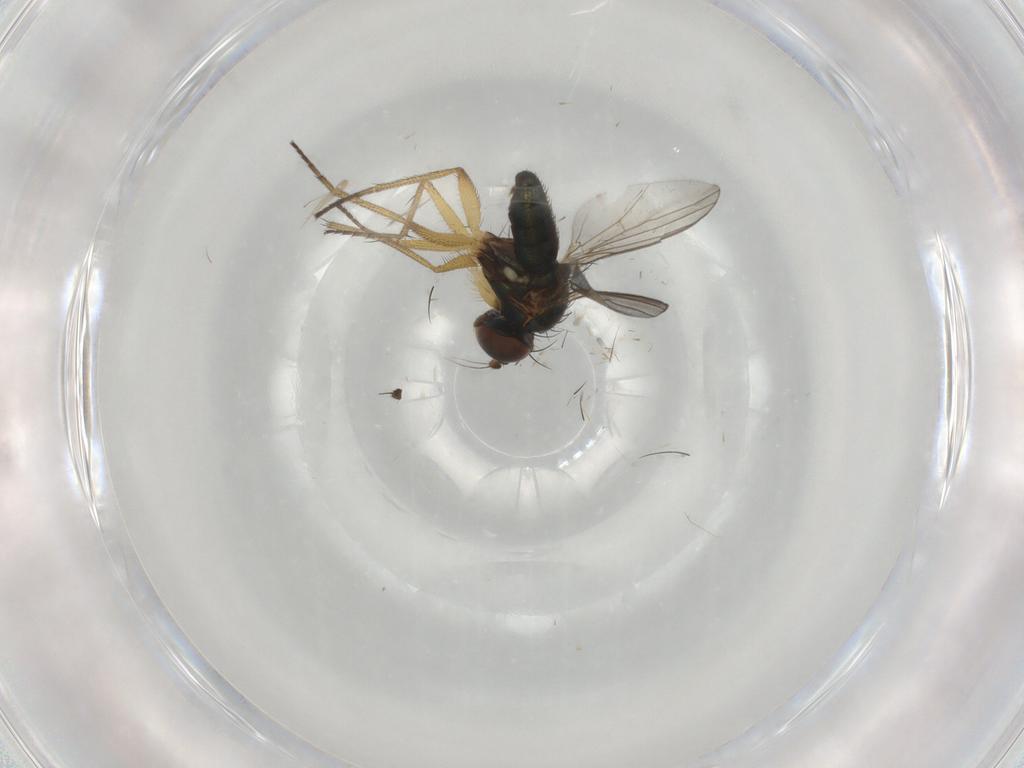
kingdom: Animalia
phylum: Arthropoda
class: Insecta
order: Diptera
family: Dolichopodidae
